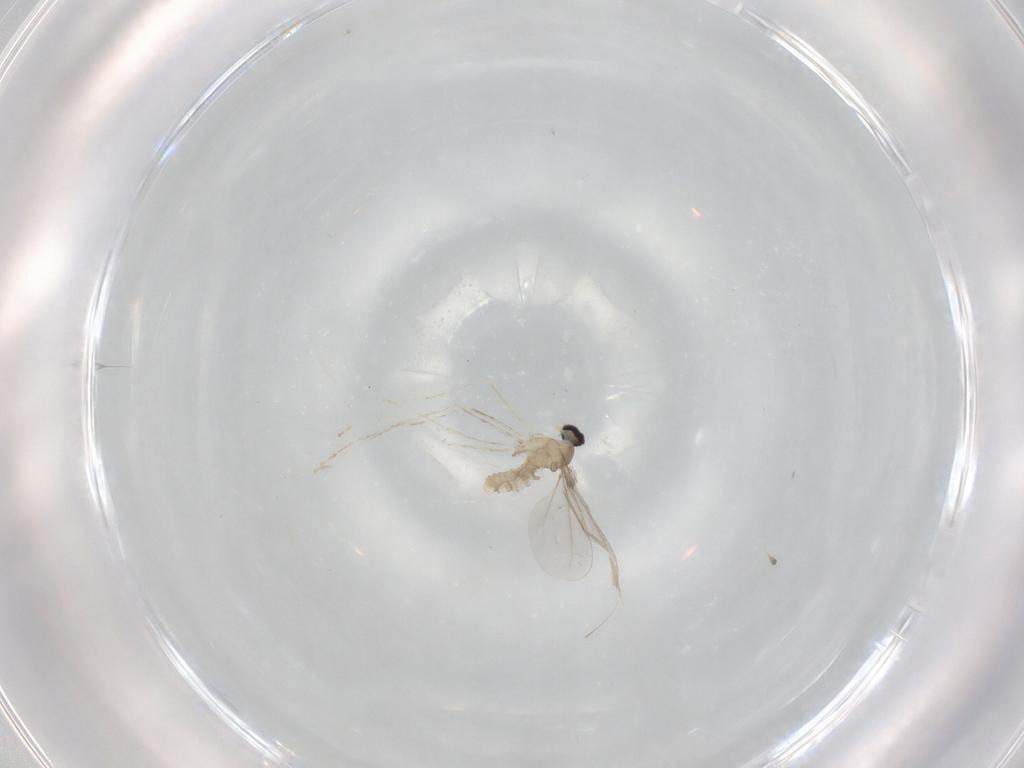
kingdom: Animalia
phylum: Arthropoda
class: Insecta
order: Diptera
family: Cecidomyiidae
